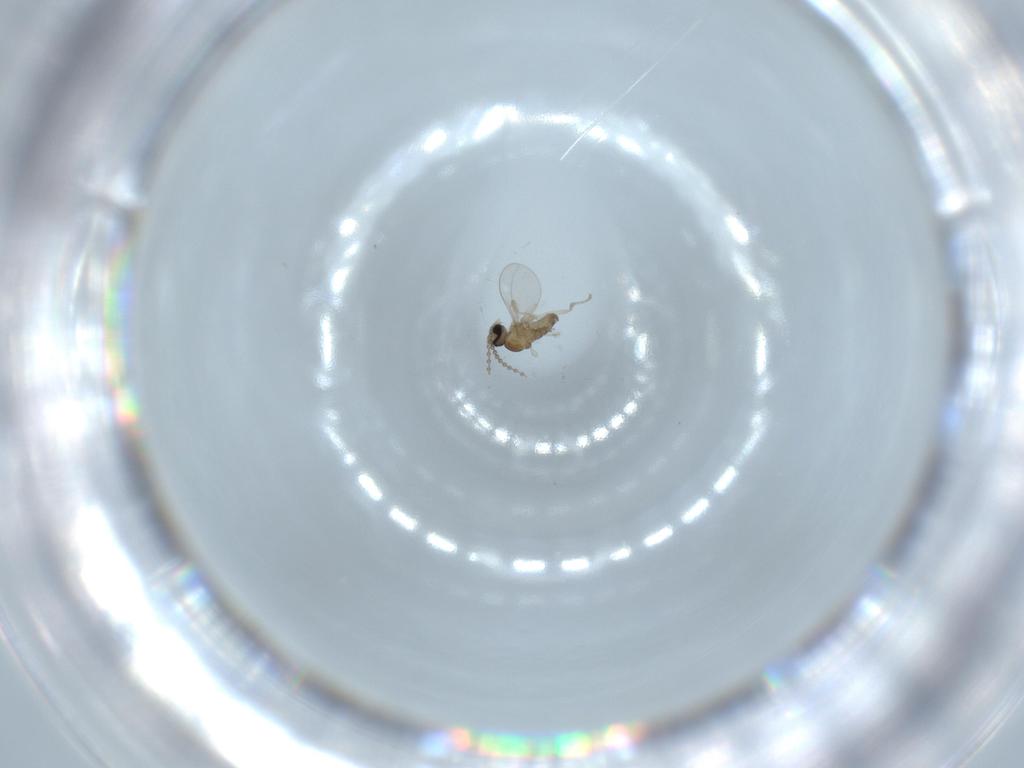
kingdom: Animalia
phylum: Arthropoda
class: Insecta
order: Diptera
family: Cecidomyiidae
